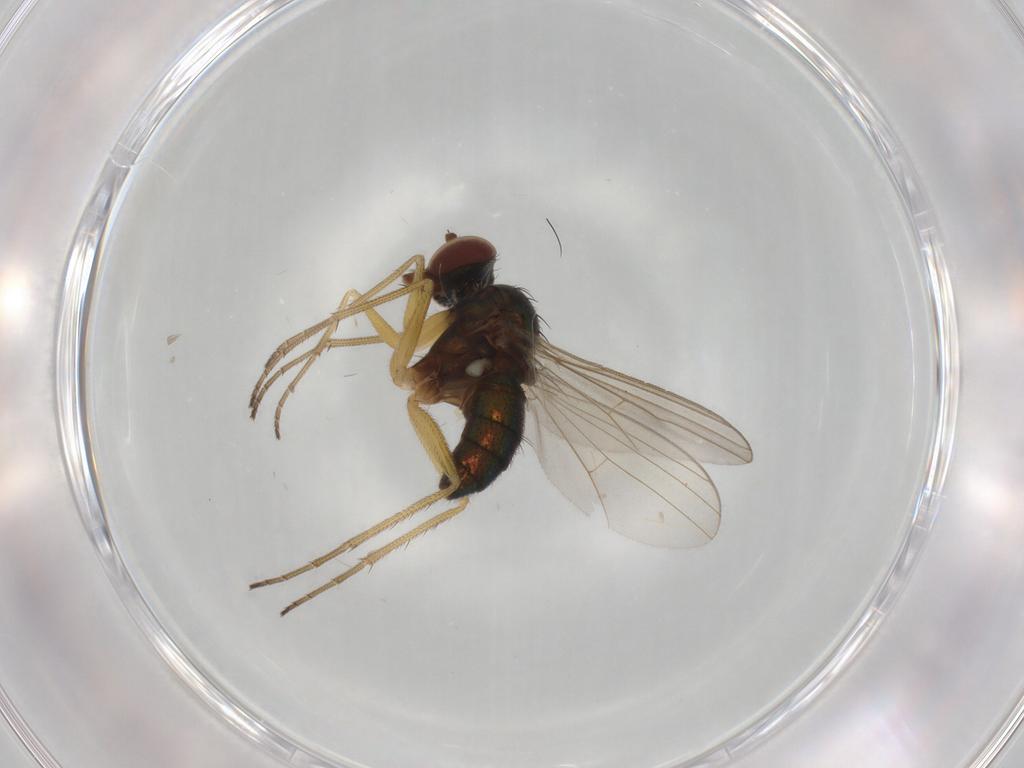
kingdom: Animalia
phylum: Arthropoda
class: Insecta
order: Diptera
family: Dolichopodidae
